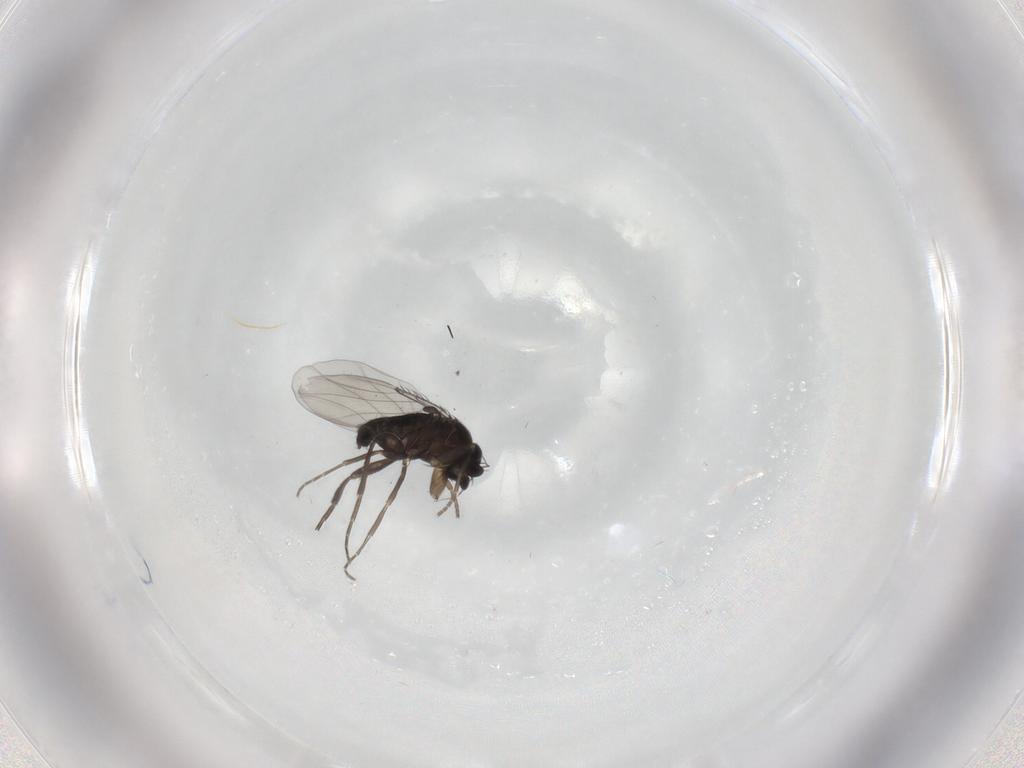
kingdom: Animalia
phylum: Arthropoda
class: Insecta
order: Diptera
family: Phoridae
